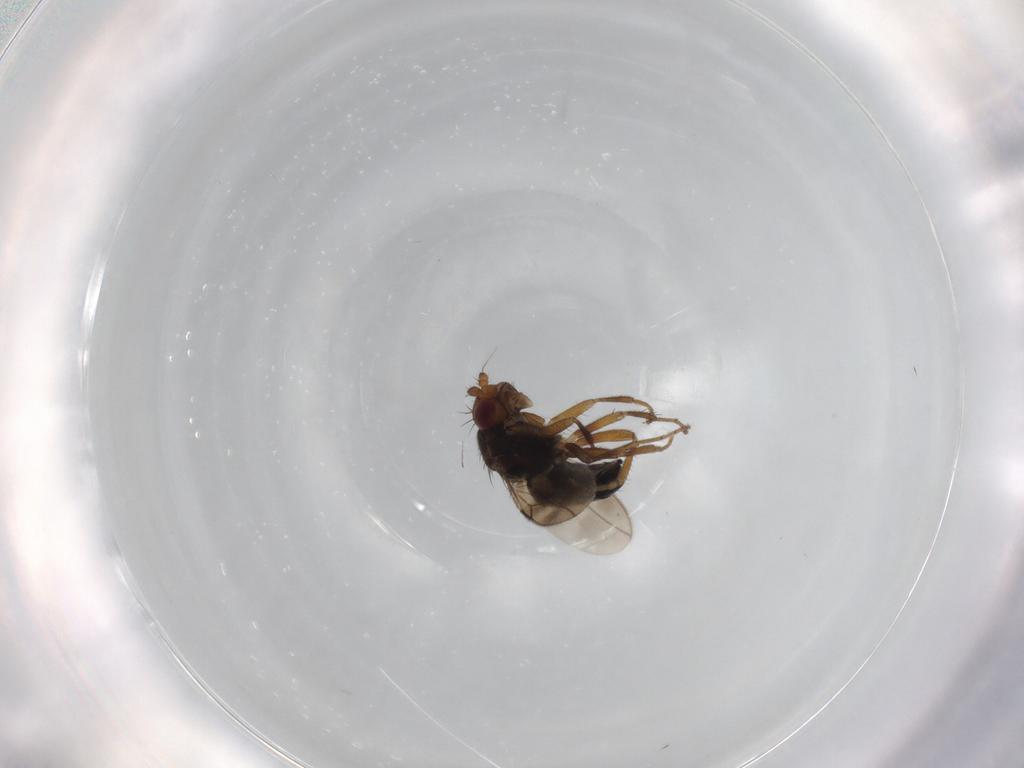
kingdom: Animalia
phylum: Arthropoda
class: Insecta
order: Diptera
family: Sphaeroceridae
